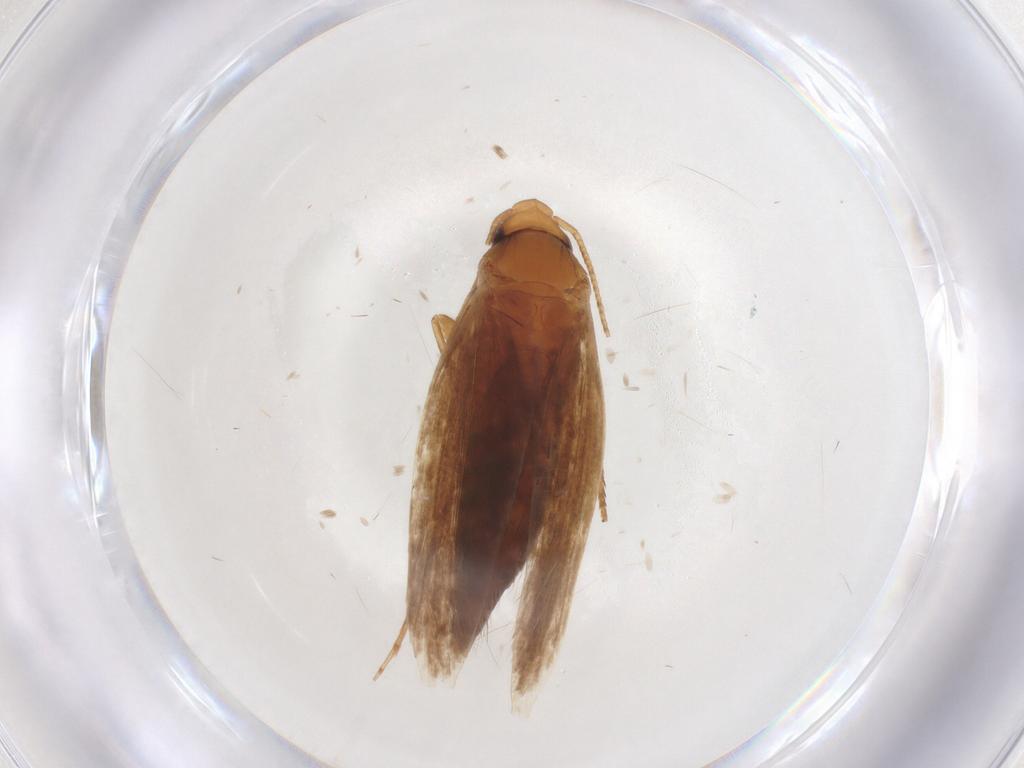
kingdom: Animalia
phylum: Arthropoda
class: Insecta
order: Lepidoptera
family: Tineidae
